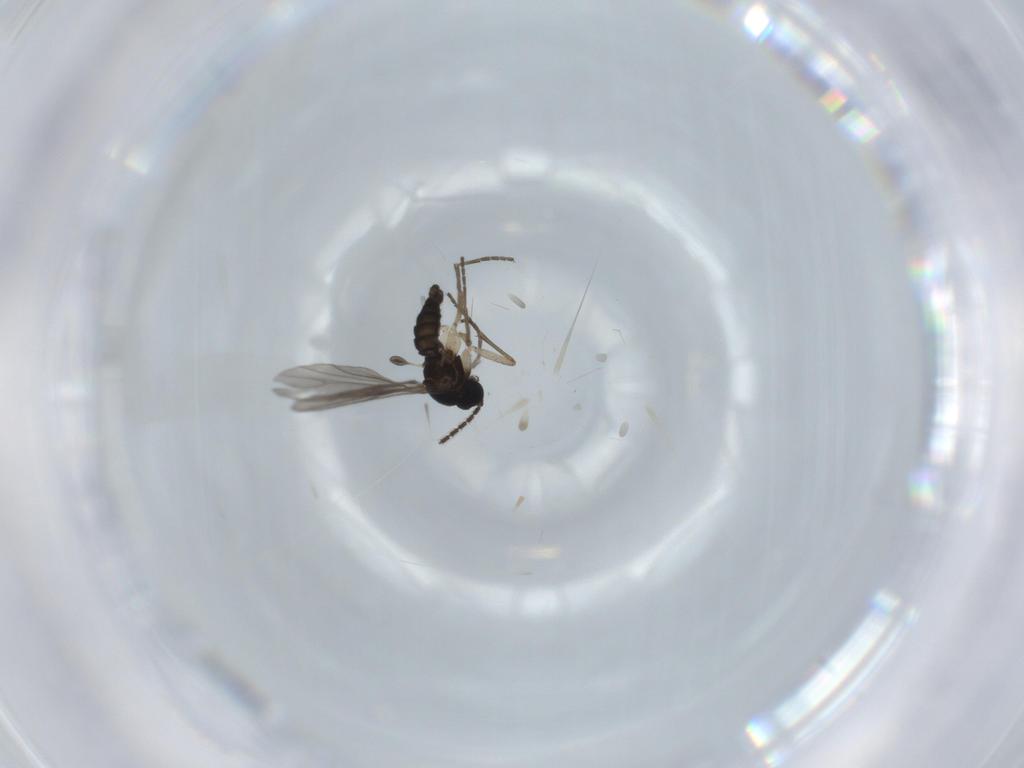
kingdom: Animalia
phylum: Arthropoda
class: Insecta
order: Diptera
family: Sciaridae
